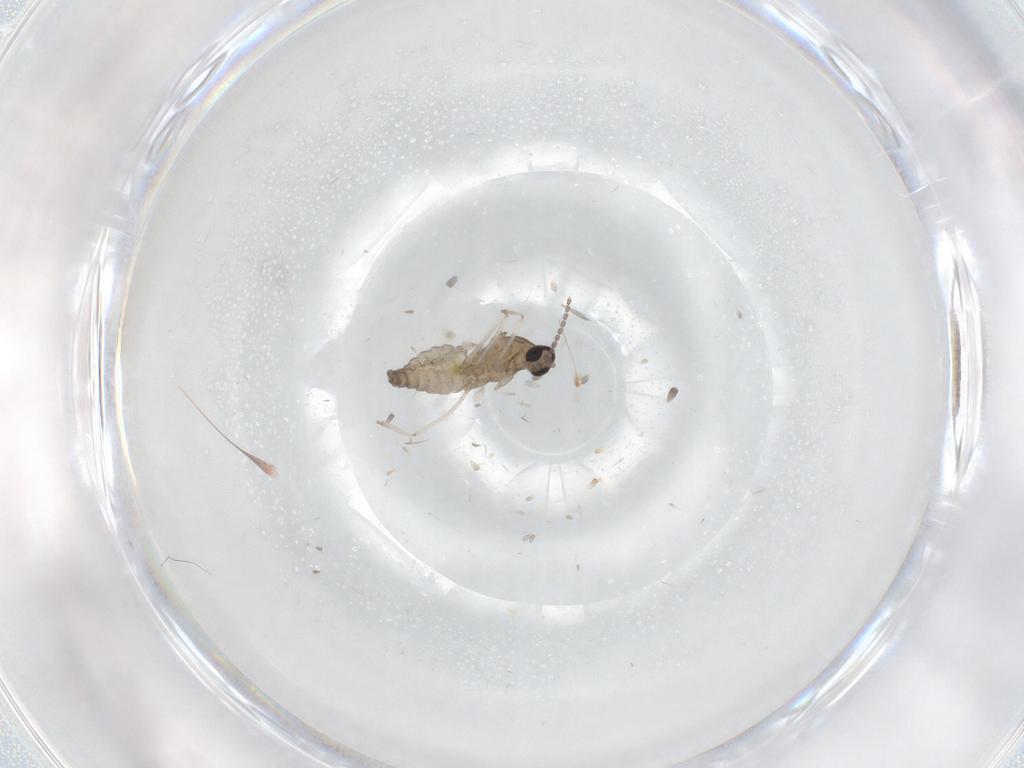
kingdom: Animalia
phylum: Arthropoda
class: Insecta
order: Diptera
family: Cecidomyiidae
